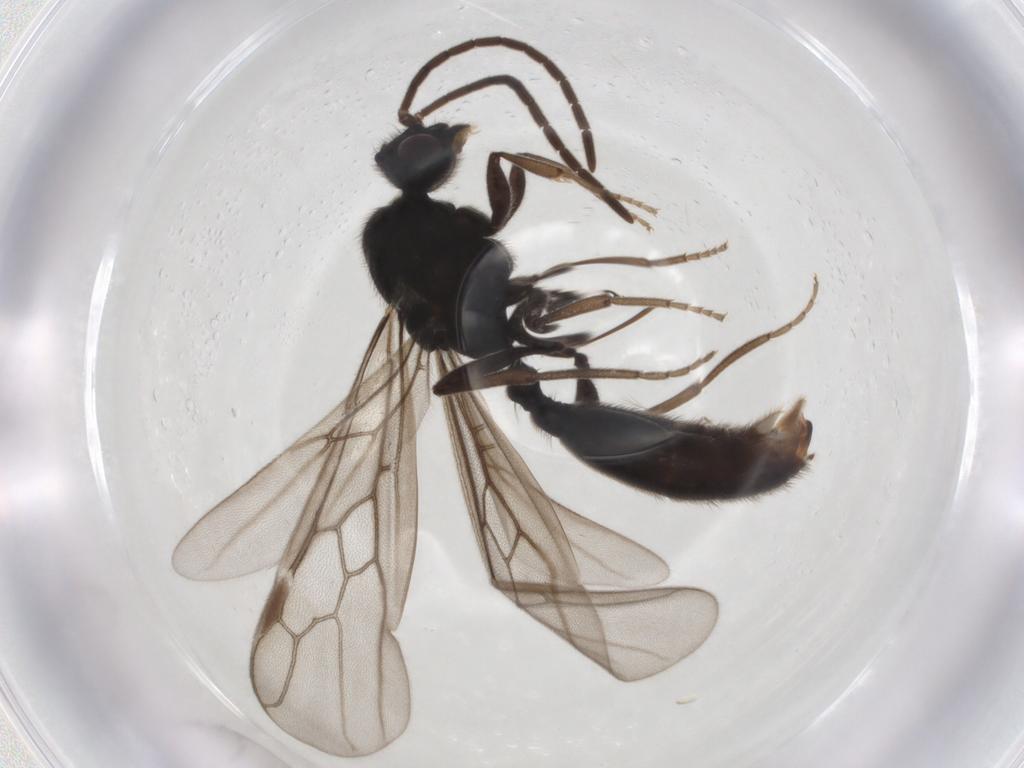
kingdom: Animalia
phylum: Arthropoda
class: Insecta
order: Hymenoptera
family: Formicidae
